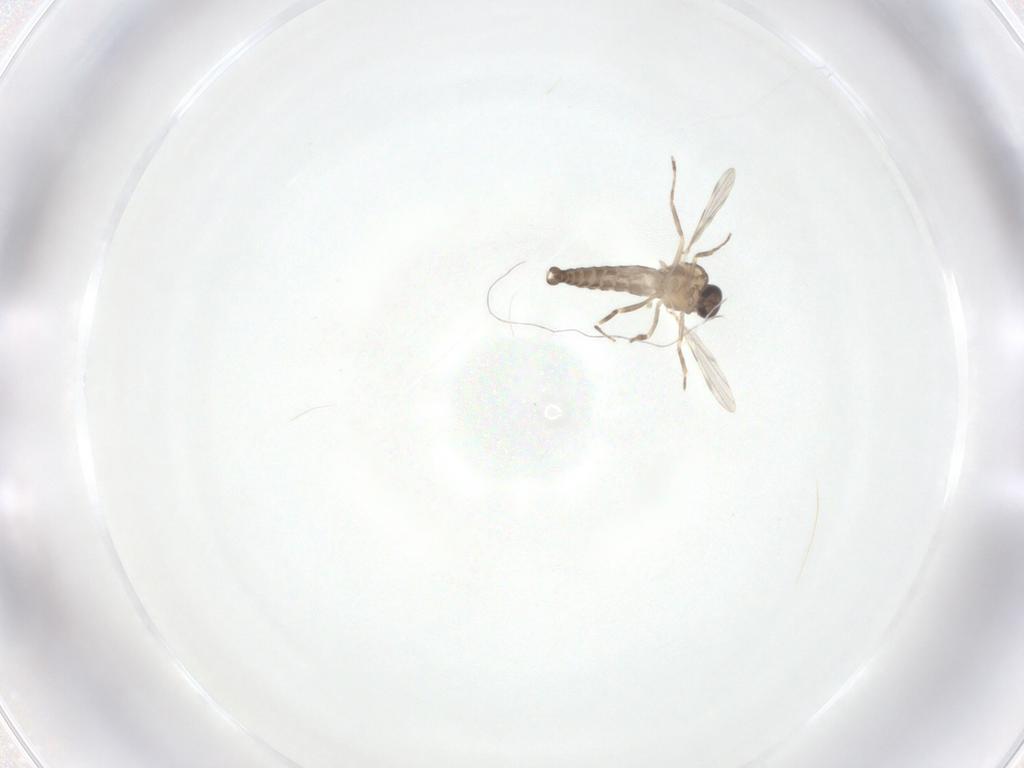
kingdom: Animalia
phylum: Arthropoda
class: Insecta
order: Diptera
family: Ceratopogonidae
